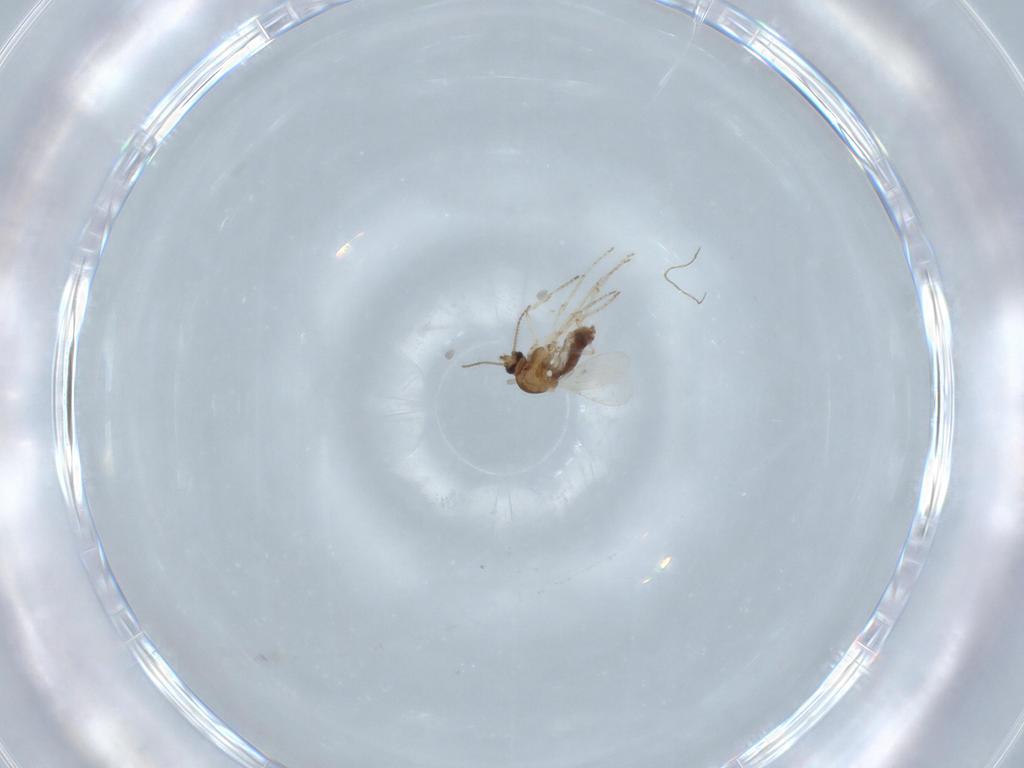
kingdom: Animalia
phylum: Arthropoda
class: Insecta
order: Diptera
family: Ceratopogonidae
